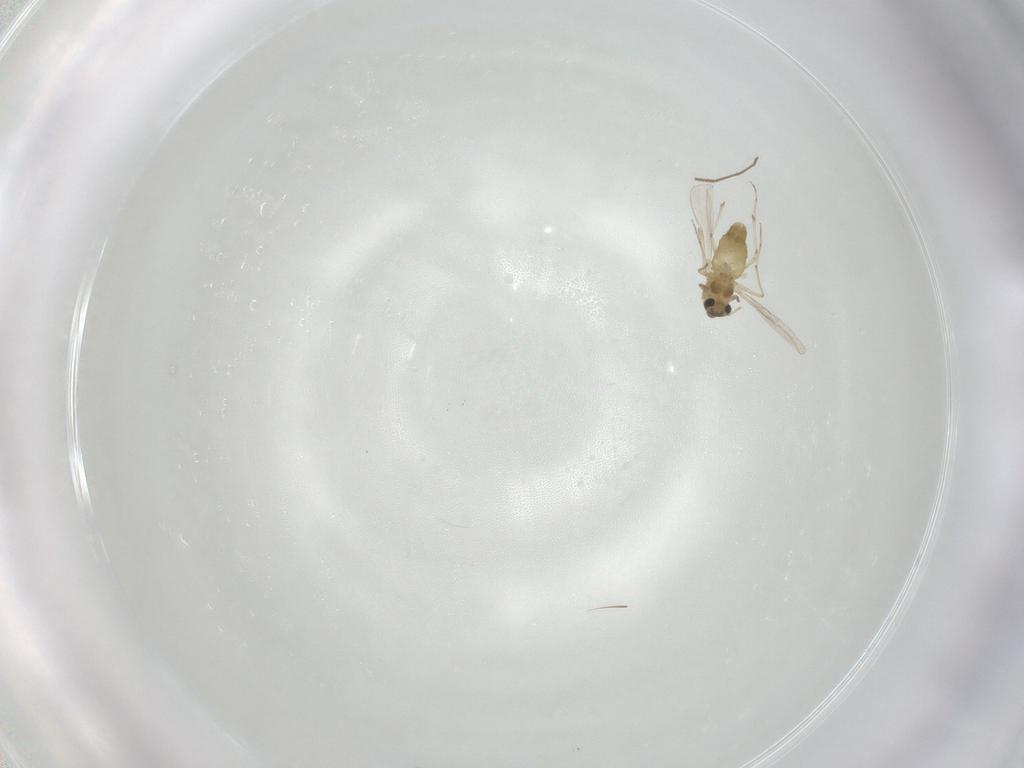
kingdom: Animalia
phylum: Arthropoda
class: Insecta
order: Diptera
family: Chironomidae
